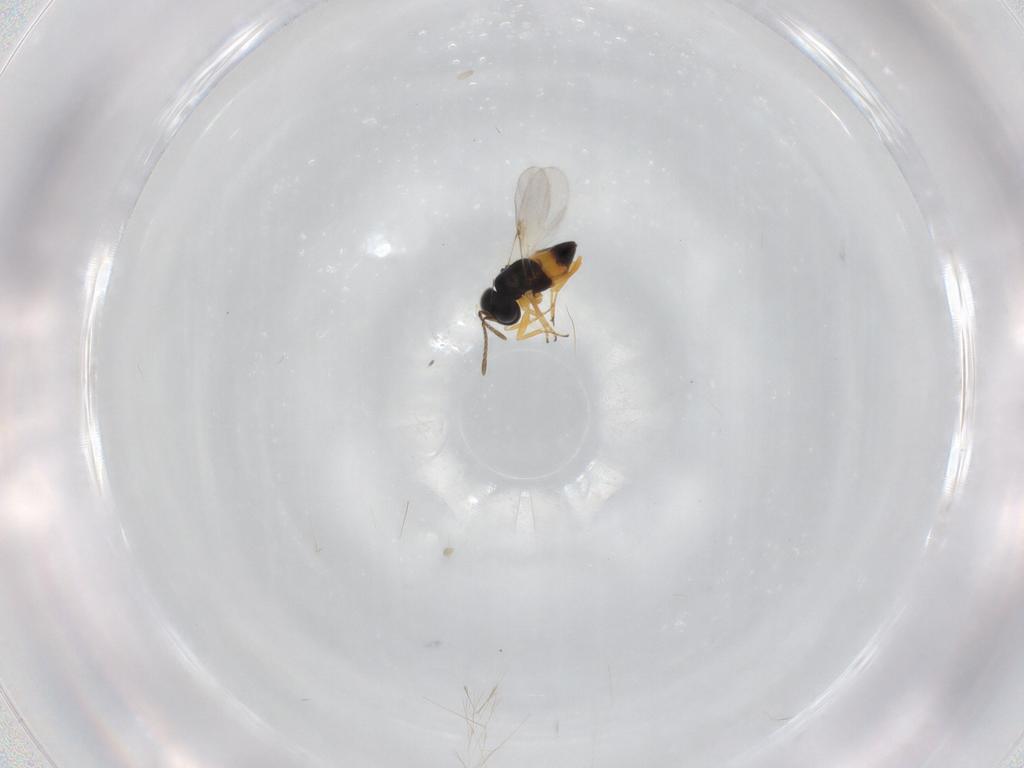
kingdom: Animalia
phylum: Arthropoda
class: Insecta
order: Hymenoptera
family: Encyrtidae
